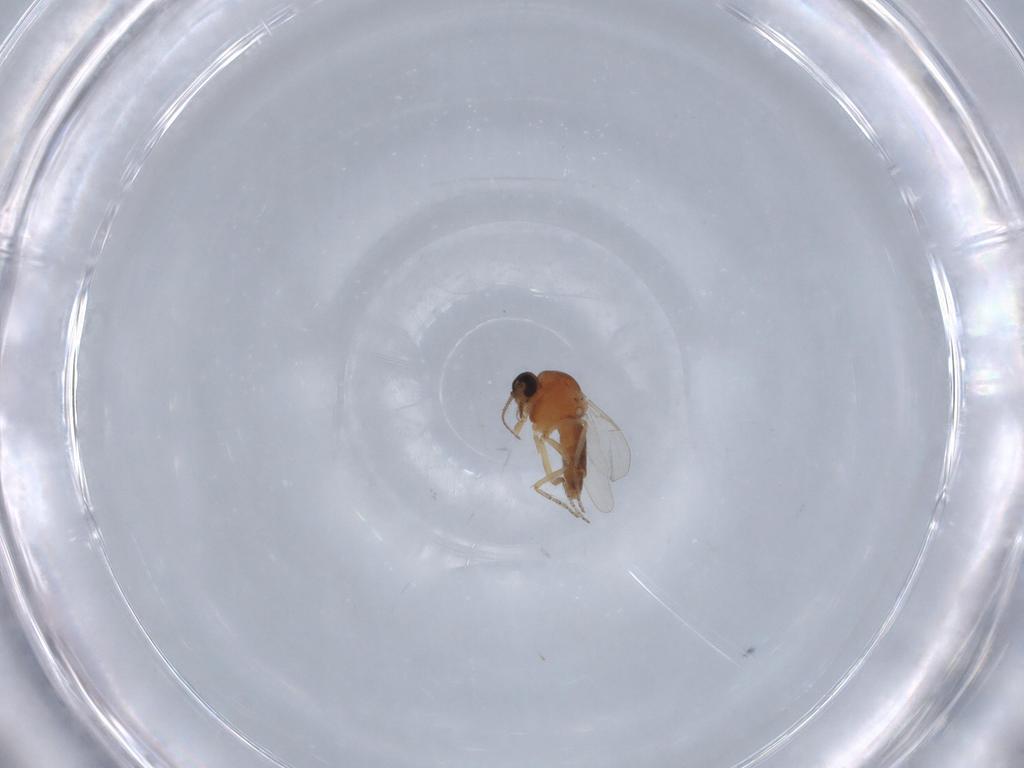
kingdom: Animalia
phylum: Arthropoda
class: Insecta
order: Diptera
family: Ceratopogonidae
